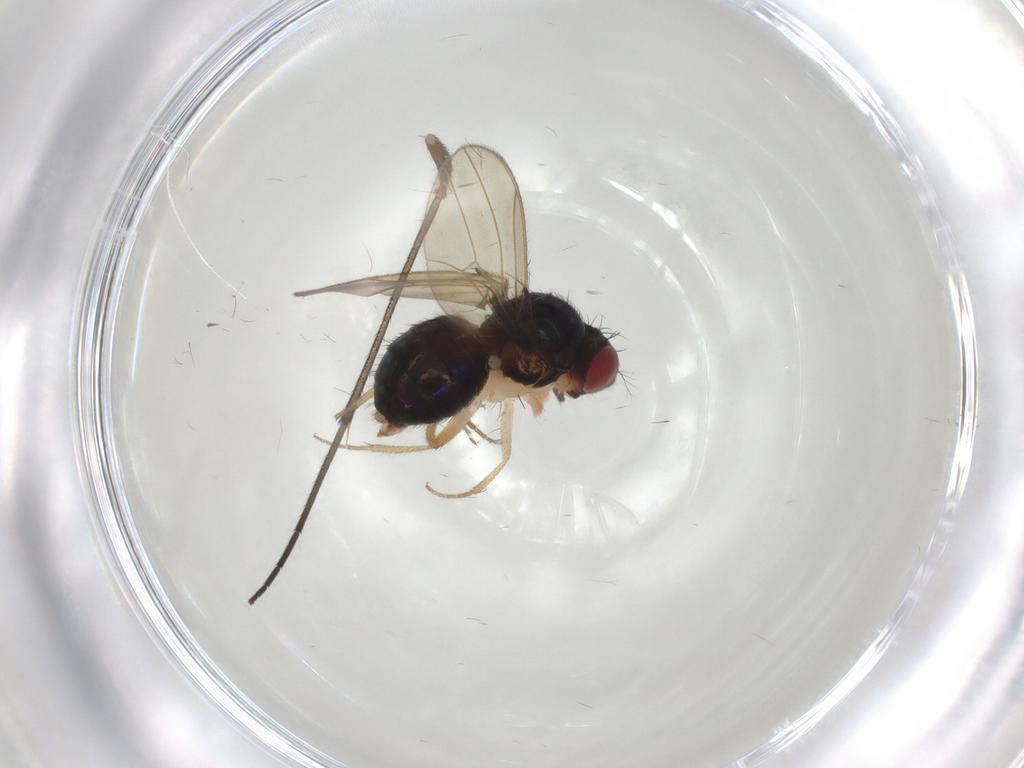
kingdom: Animalia
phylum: Arthropoda
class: Insecta
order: Diptera
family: Drosophilidae
